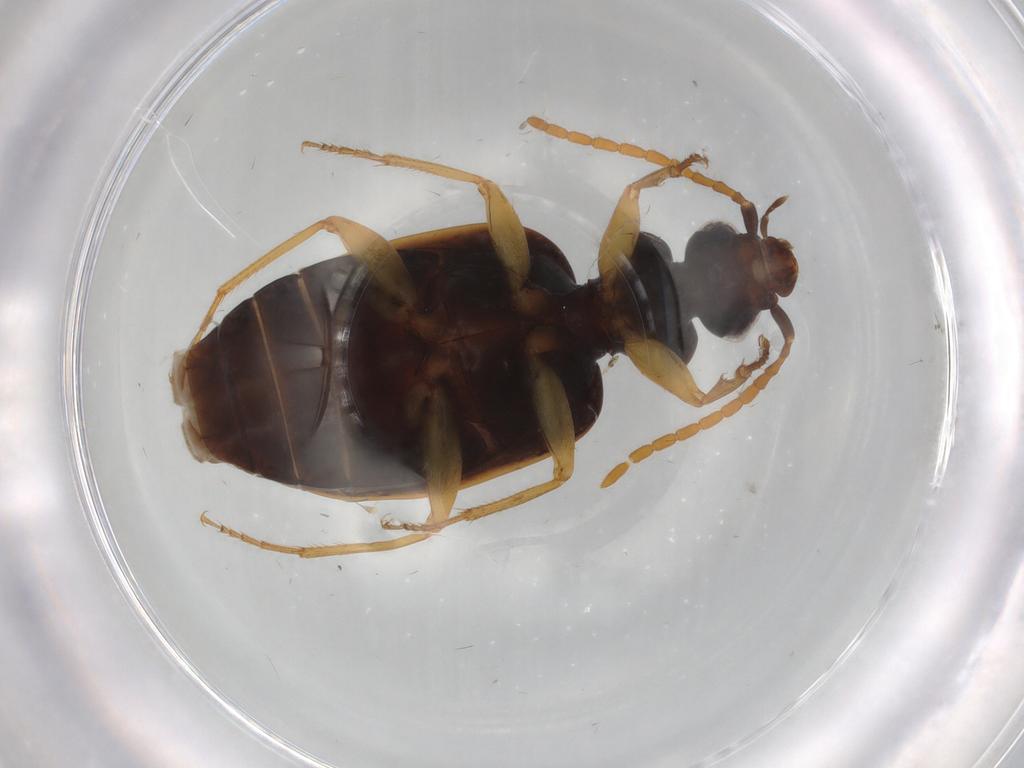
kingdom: Animalia
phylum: Arthropoda
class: Insecta
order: Coleoptera
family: Carabidae
